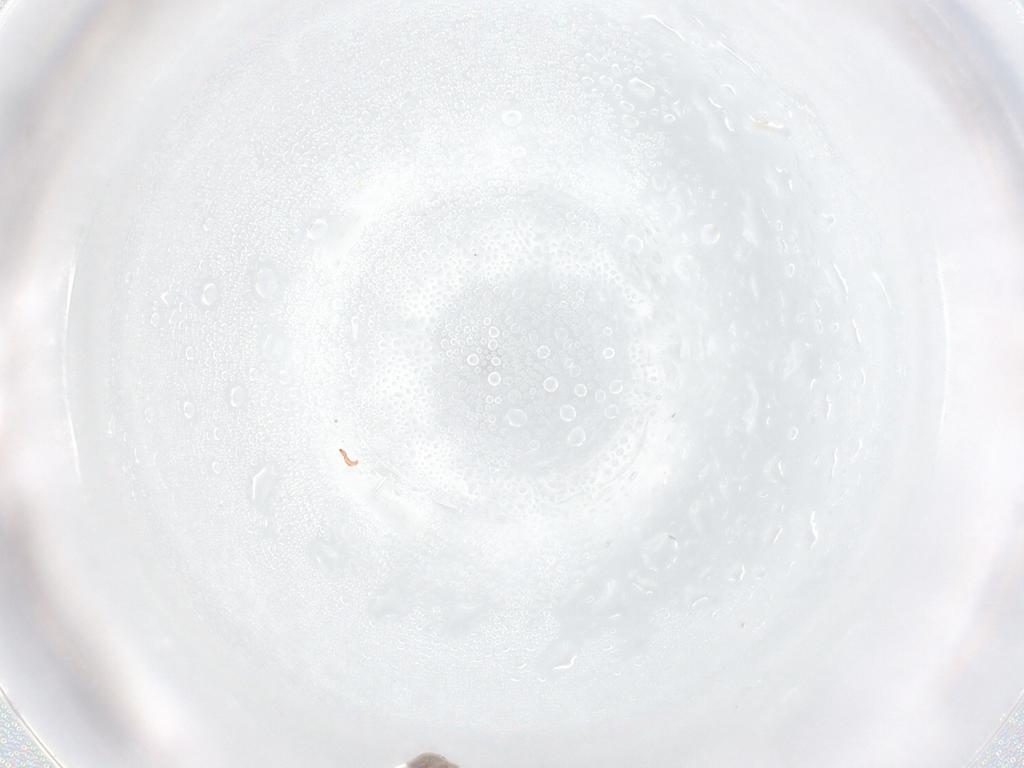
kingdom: Animalia
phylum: Arthropoda
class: Collembola
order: Entomobryomorpha
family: Entomobryidae
